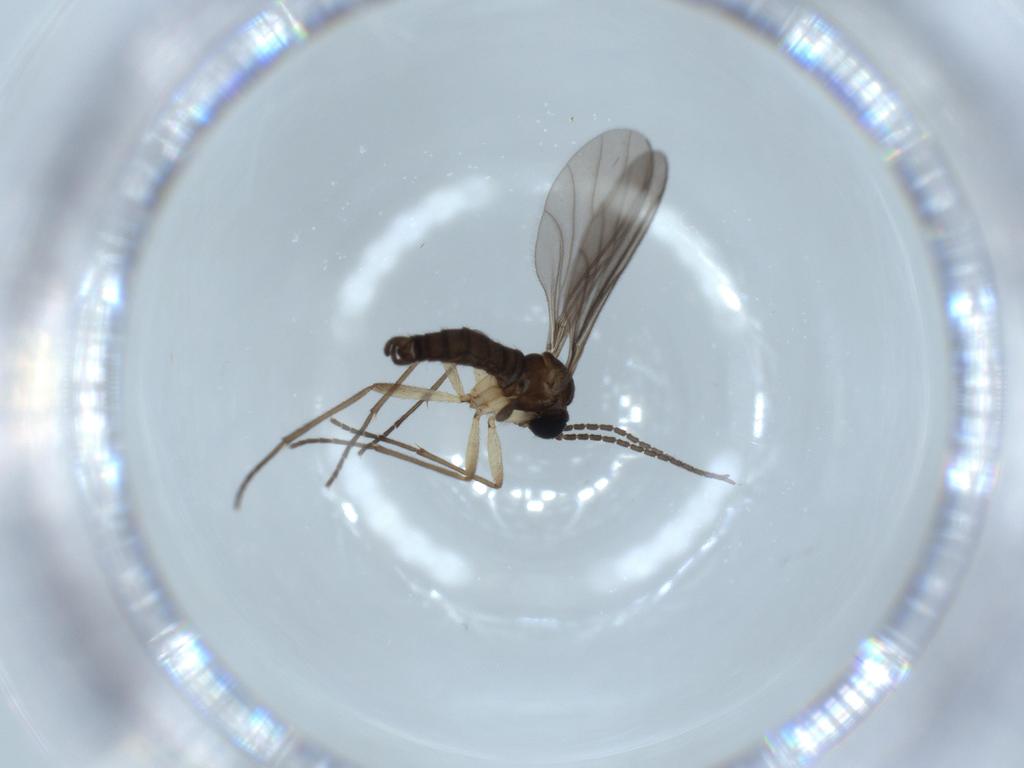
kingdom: Animalia
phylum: Arthropoda
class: Insecta
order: Diptera
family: Sciaridae
